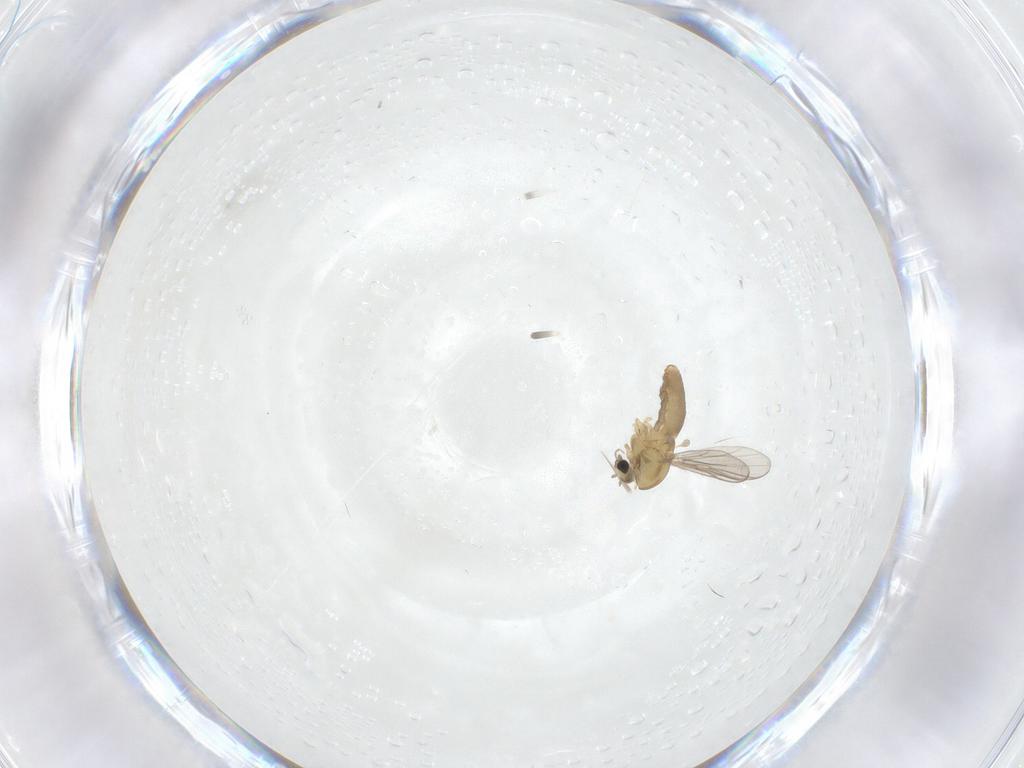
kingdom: Animalia
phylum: Arthropoda
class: Insecta
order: Diptera
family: Chironomidae
